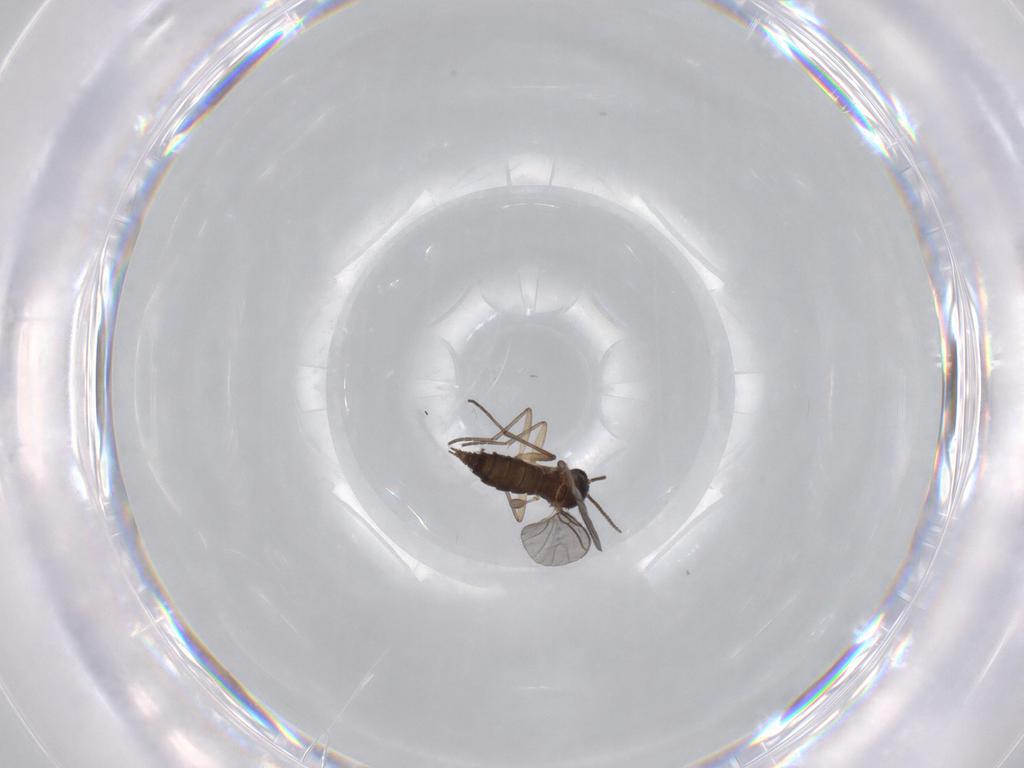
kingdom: Animalia
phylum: Arthropoda
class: Insecta
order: Diptera
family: Sciaridae
